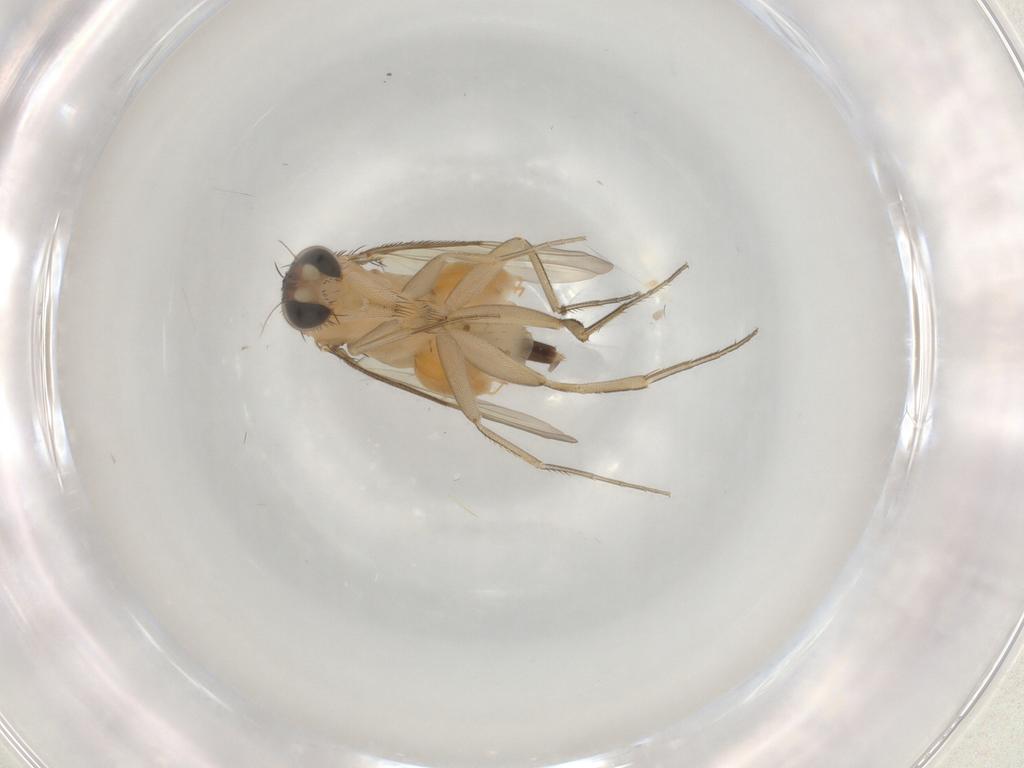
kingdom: Animalia
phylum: Arthropoda
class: Insecta
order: Diptera
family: Phoridae
